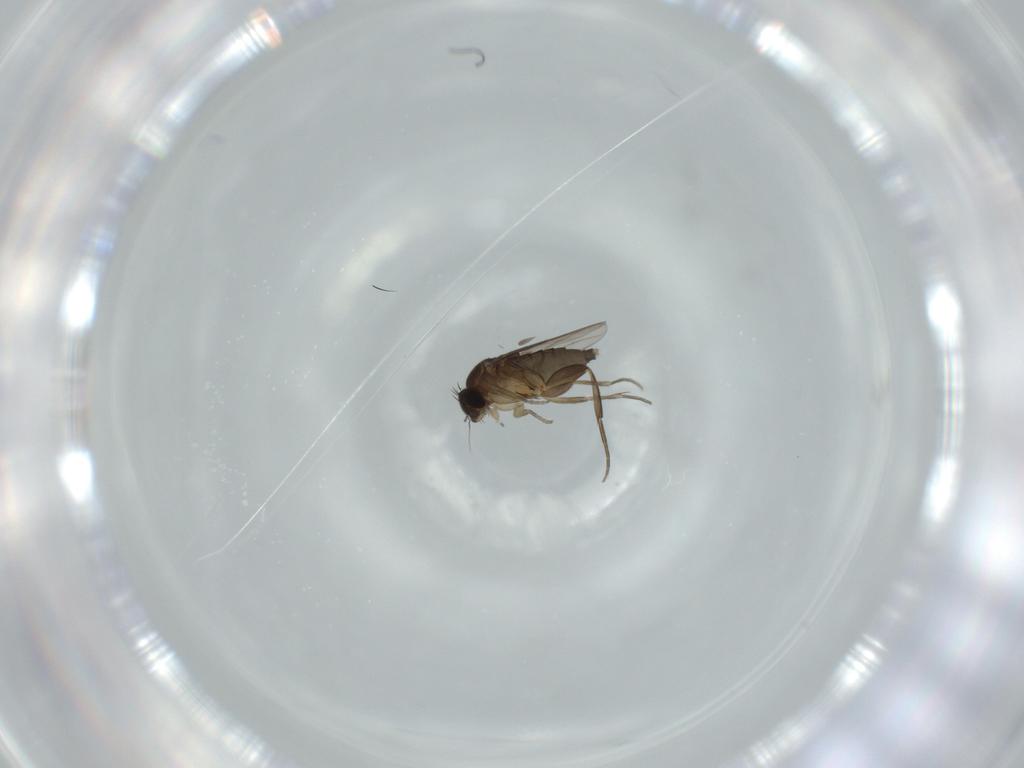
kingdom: Animalia
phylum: Arthropoda
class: Insecta
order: Diptera
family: Phoridae
